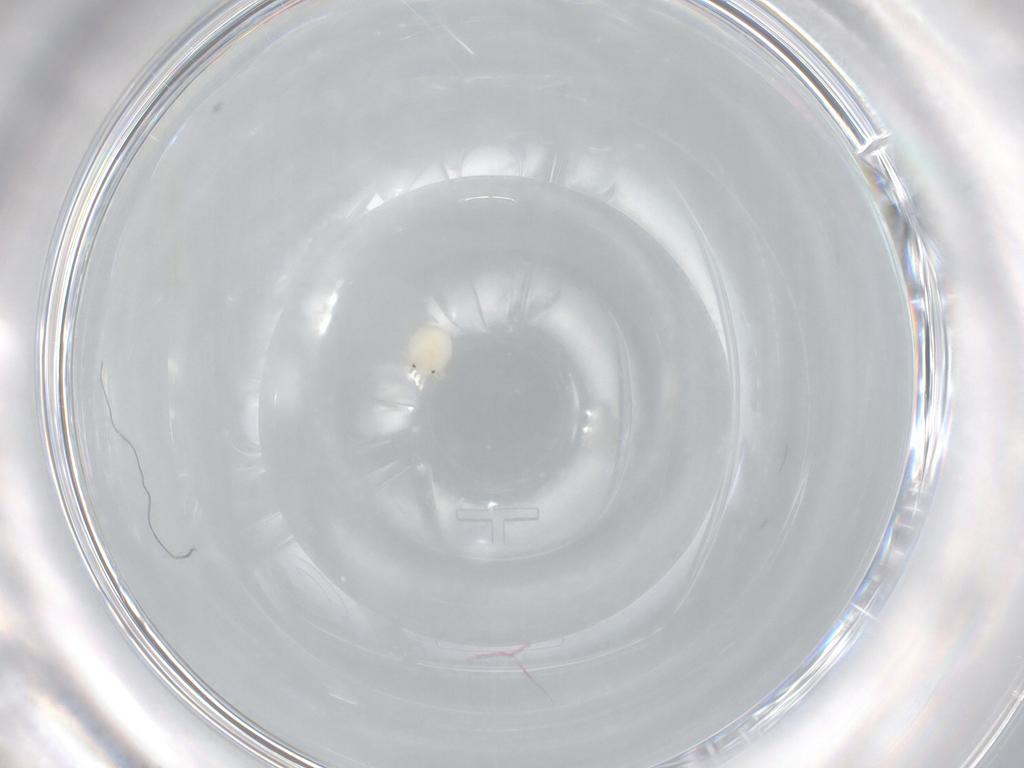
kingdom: Animalia
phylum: Arthropoda
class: Arachnida
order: Trombidiformes
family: Arrenuridae
